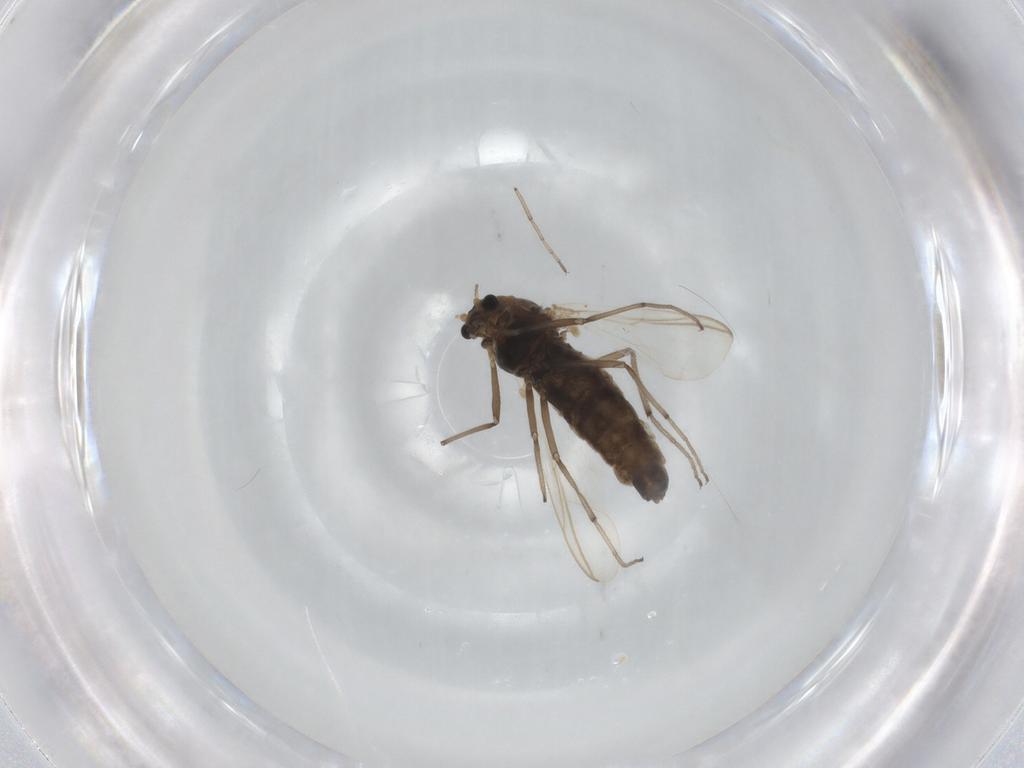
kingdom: Animalia
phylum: Arthropoda
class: Insecta
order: Diptera
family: Chironomidae
